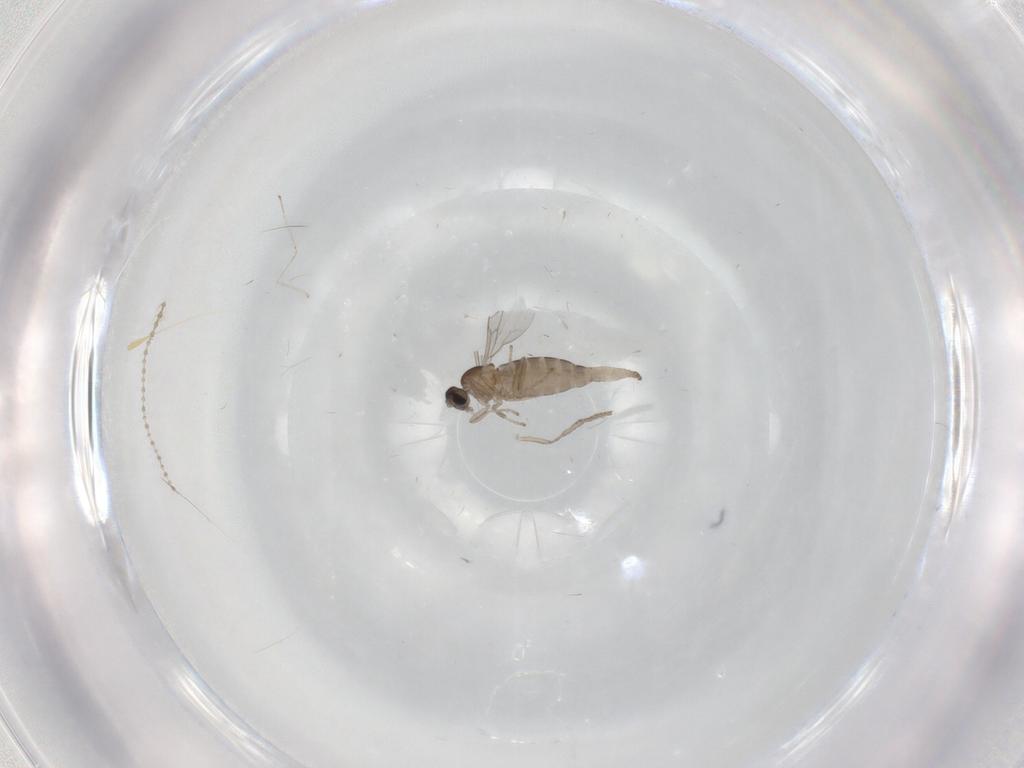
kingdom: Animalia
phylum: Arthropoda
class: Insecta
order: Diptera
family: Cecidomyiidae
